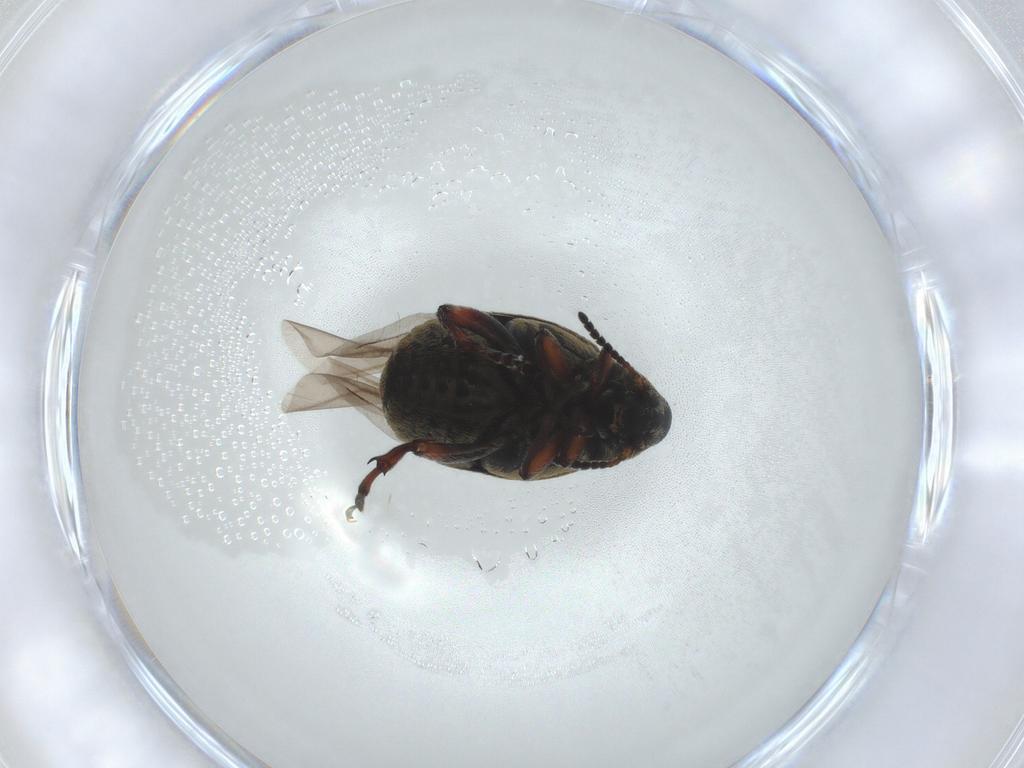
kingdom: Animalia
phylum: Arthropoda
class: Insecta
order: Coleoptera
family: Chrysomelidae
